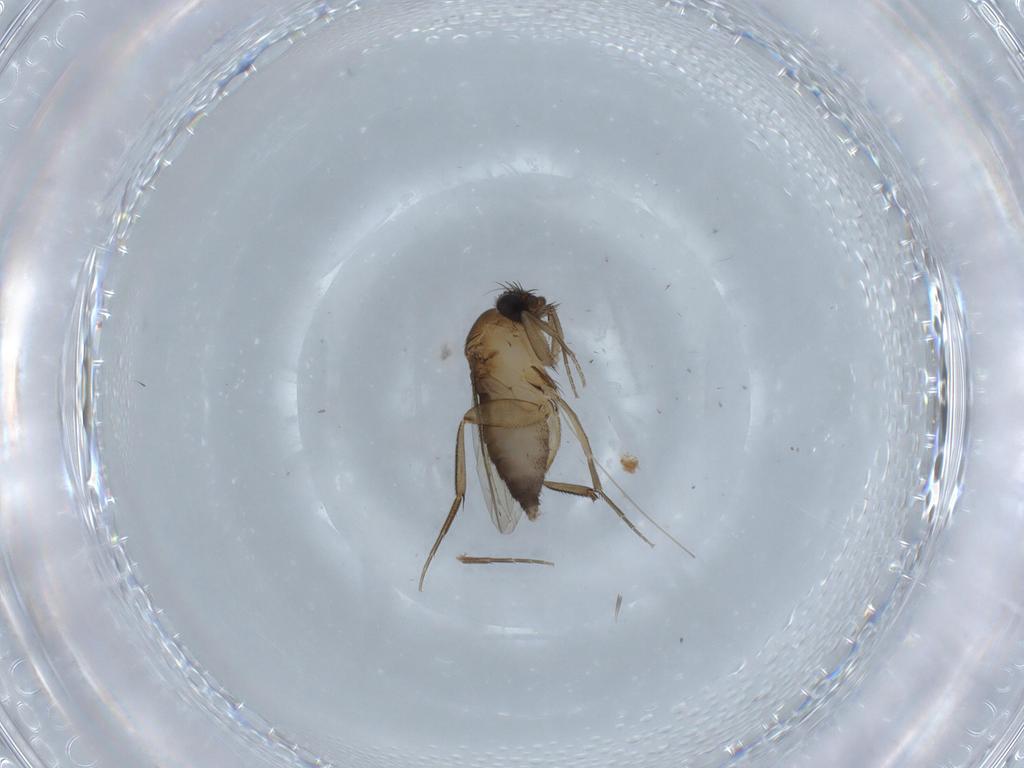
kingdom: Animalia
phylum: Arthropoda
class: Insecta
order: Diptera
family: Phoridae
